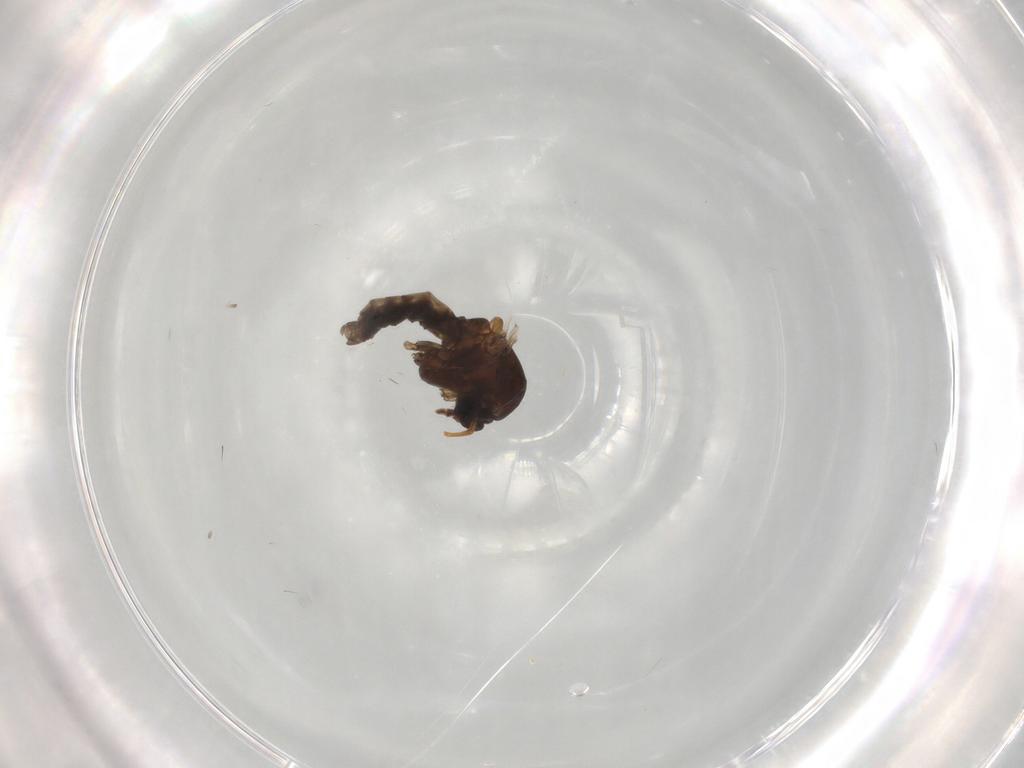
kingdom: Animalia
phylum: Arthropoda
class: Insecta
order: Diptera
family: Ceratopogonidae
